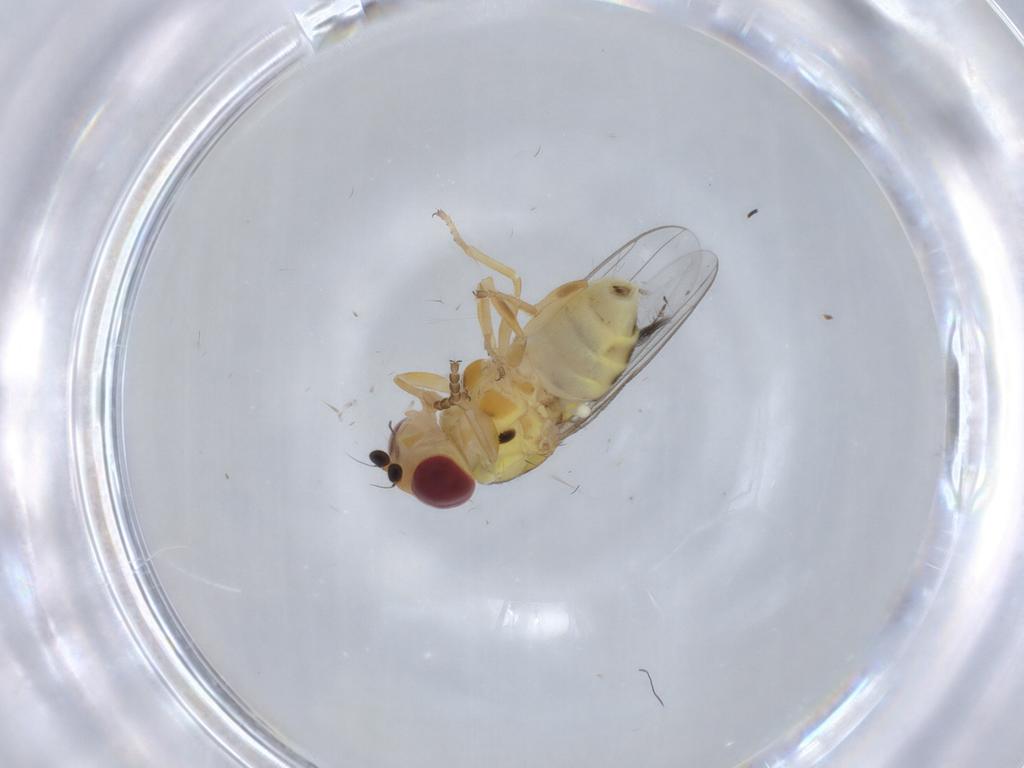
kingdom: Animalia
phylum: Arthropoda
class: Insecta
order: Diptera
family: Chloropidae
